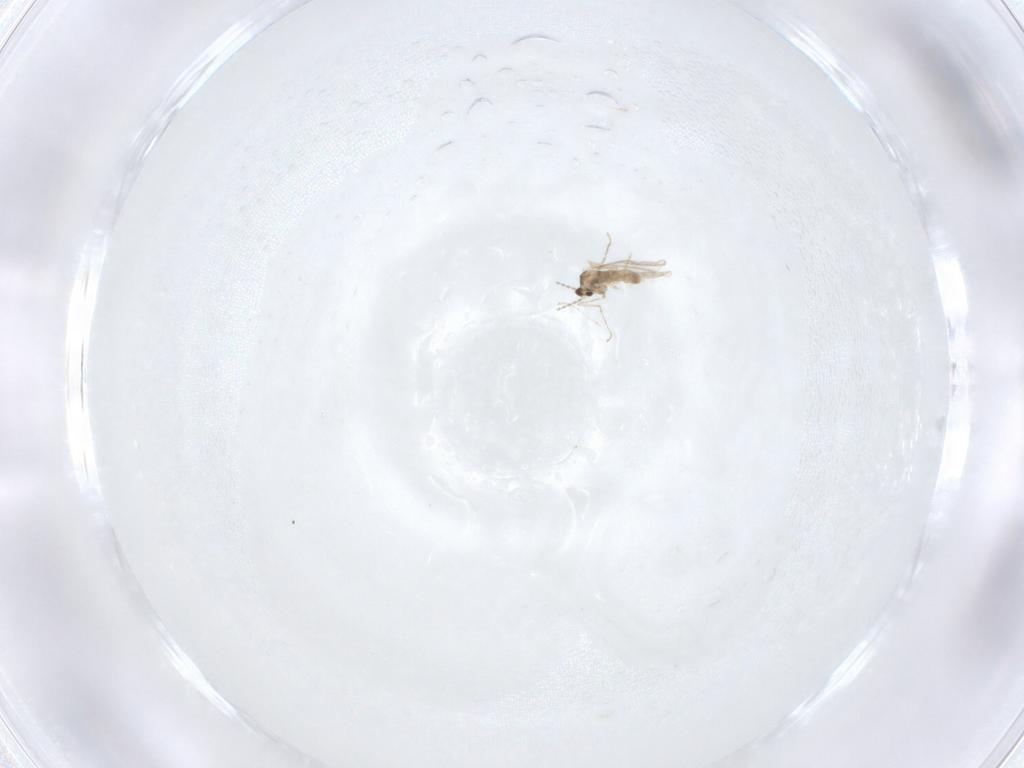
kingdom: Animalia
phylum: Arthropoda
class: Insecta
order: Diptera
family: Cecidomyiidae
